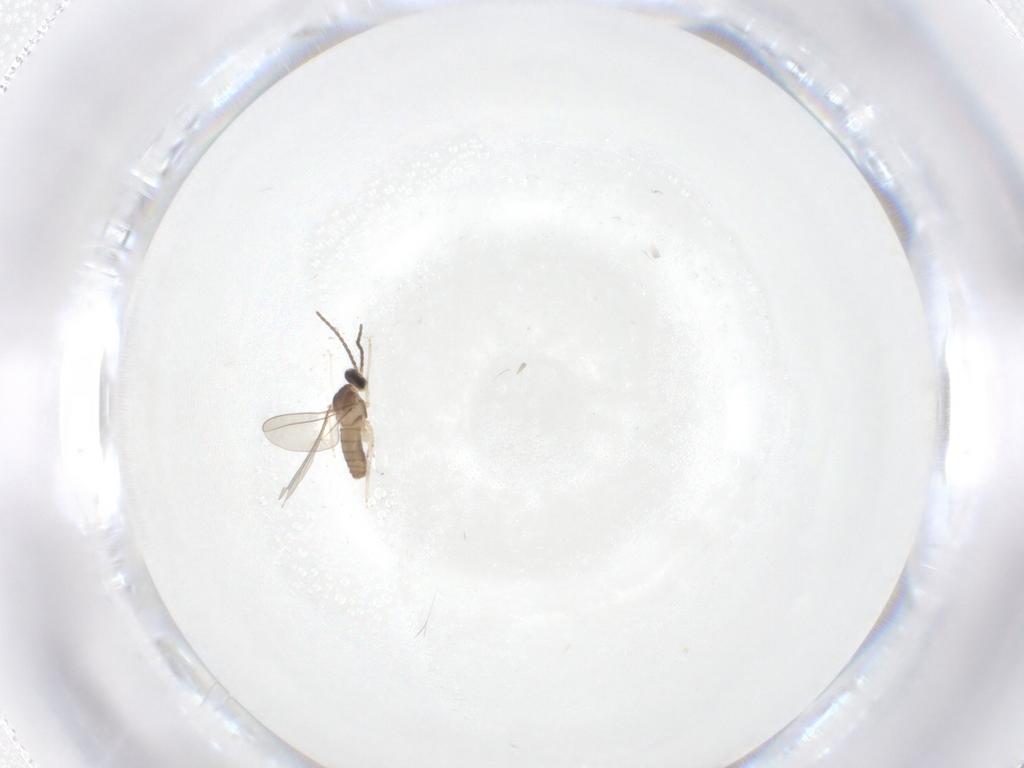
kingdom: Animalia
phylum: Arthropoda
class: Insecta
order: Diptera
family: Cecidomyiidae
